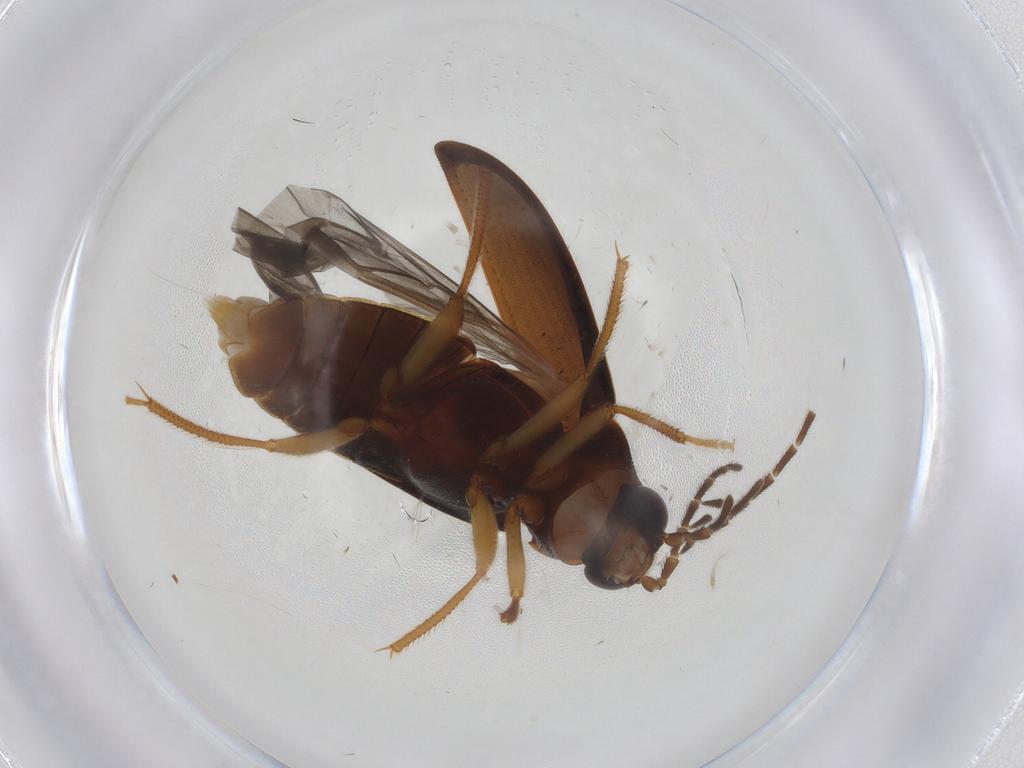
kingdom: Animalia
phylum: Arthropoda
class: Insecta
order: Coleoptera
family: Ptilodactylidae
